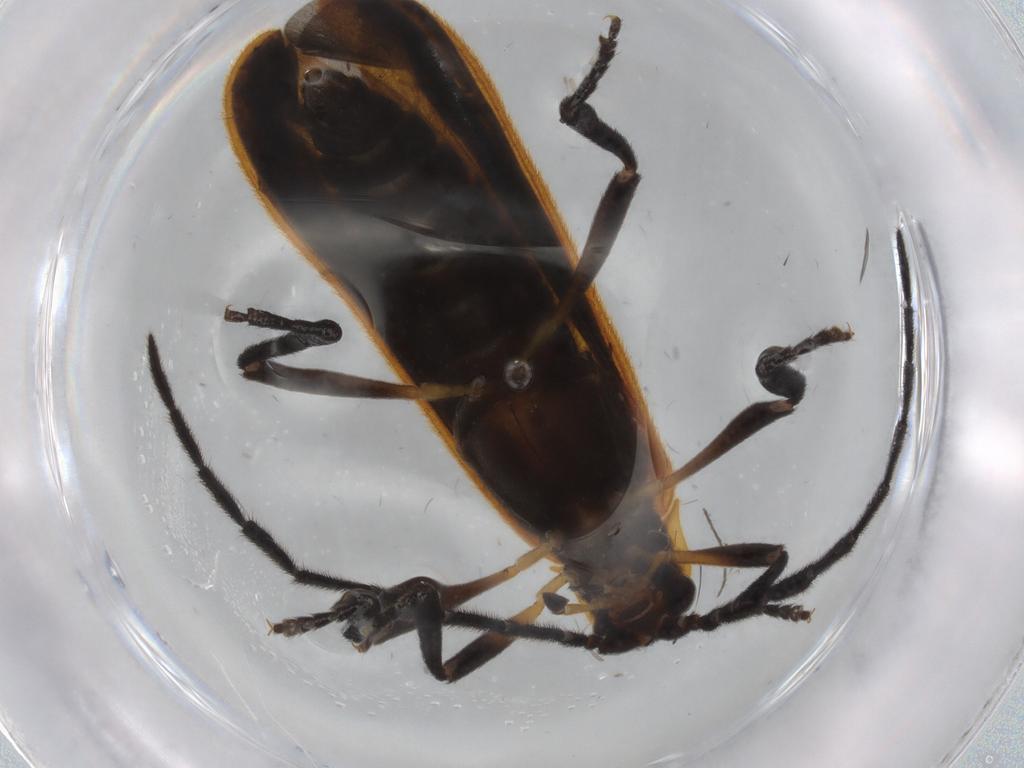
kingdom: Animalia
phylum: Arthropoda
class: Insecta
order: Coleoptera
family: Lycidae
